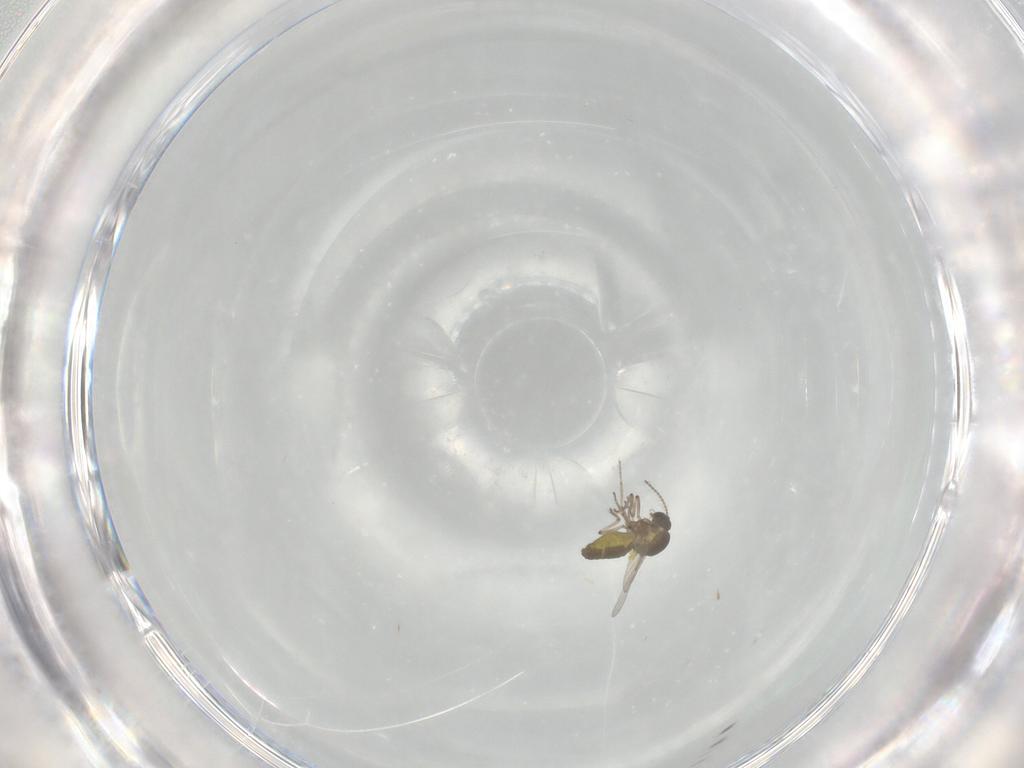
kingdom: Animalia
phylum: Arthropoda
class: Insecta
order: Diptera
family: Ceratopogonidae
